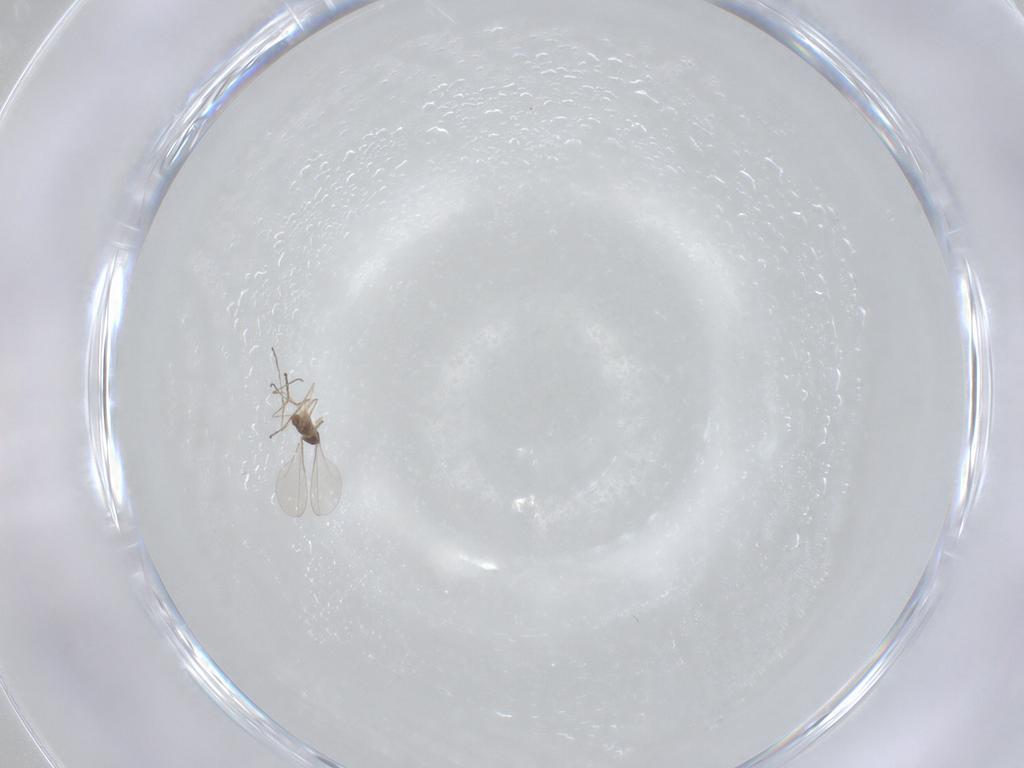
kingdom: Animalia
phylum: Arthropoda
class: Insecta
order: Diptera
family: Cecidomyiidae
